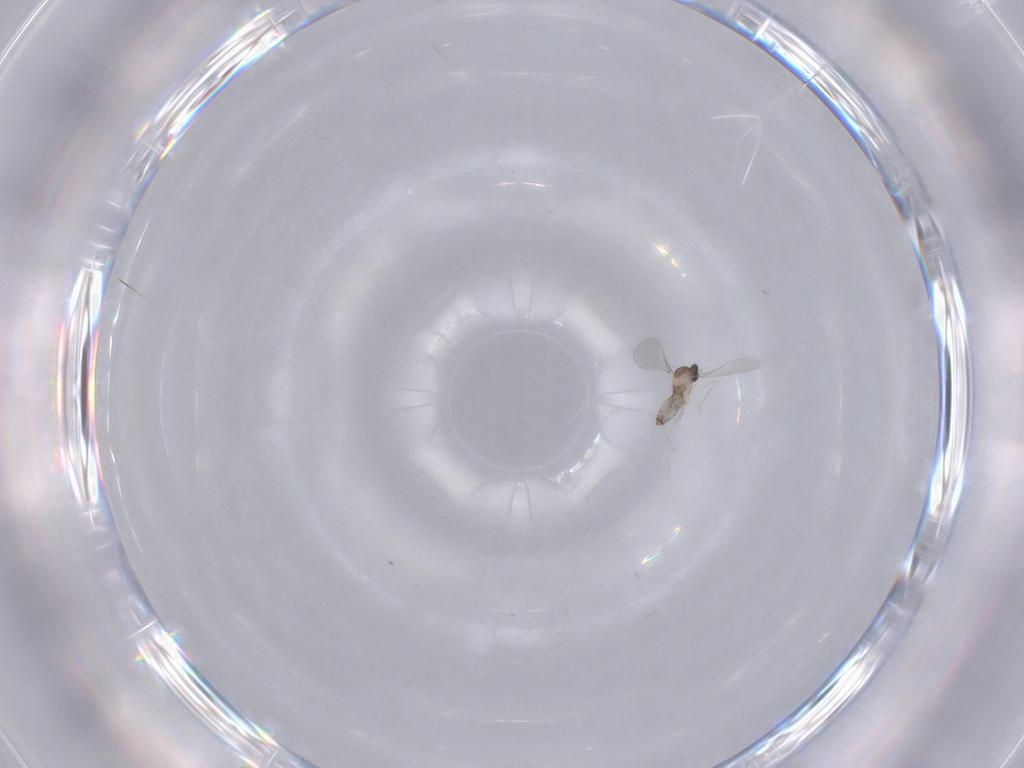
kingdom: Animalia
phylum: Arthropoda
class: Insecta
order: Diptera
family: Cecidomyiidae
